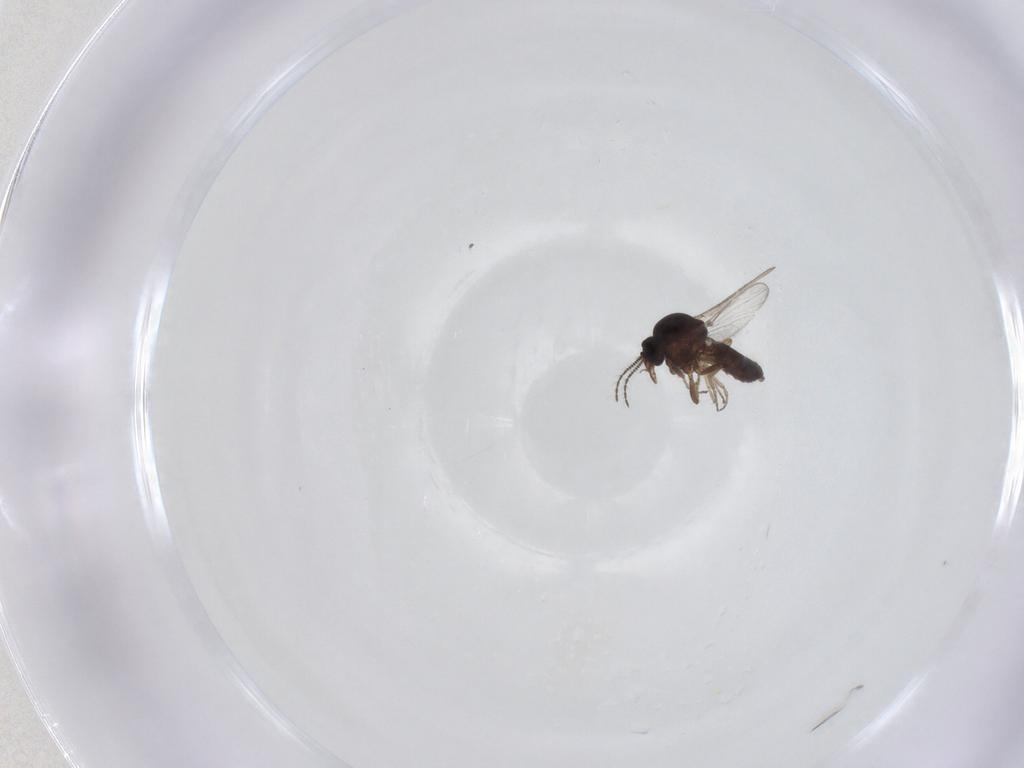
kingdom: Animalia
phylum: Arthropoda
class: Insecta
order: Diptera
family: Ceratopogonidae
